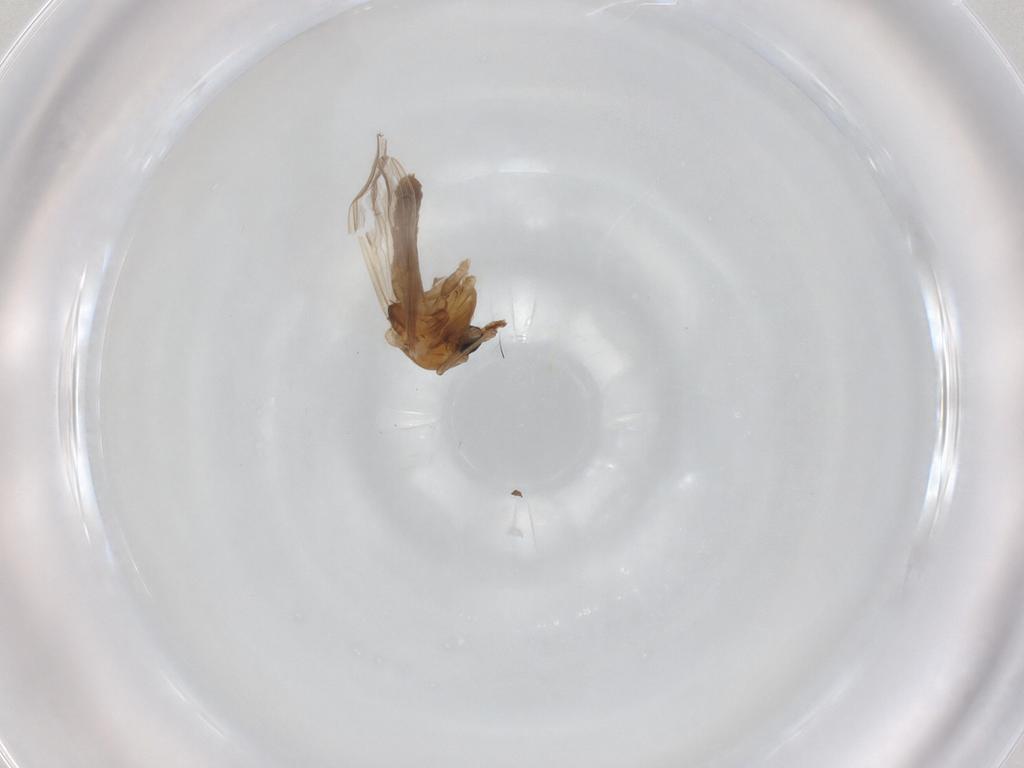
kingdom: Animalia
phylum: Arthropoda
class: Insecta
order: Diptera
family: Chironomidae
